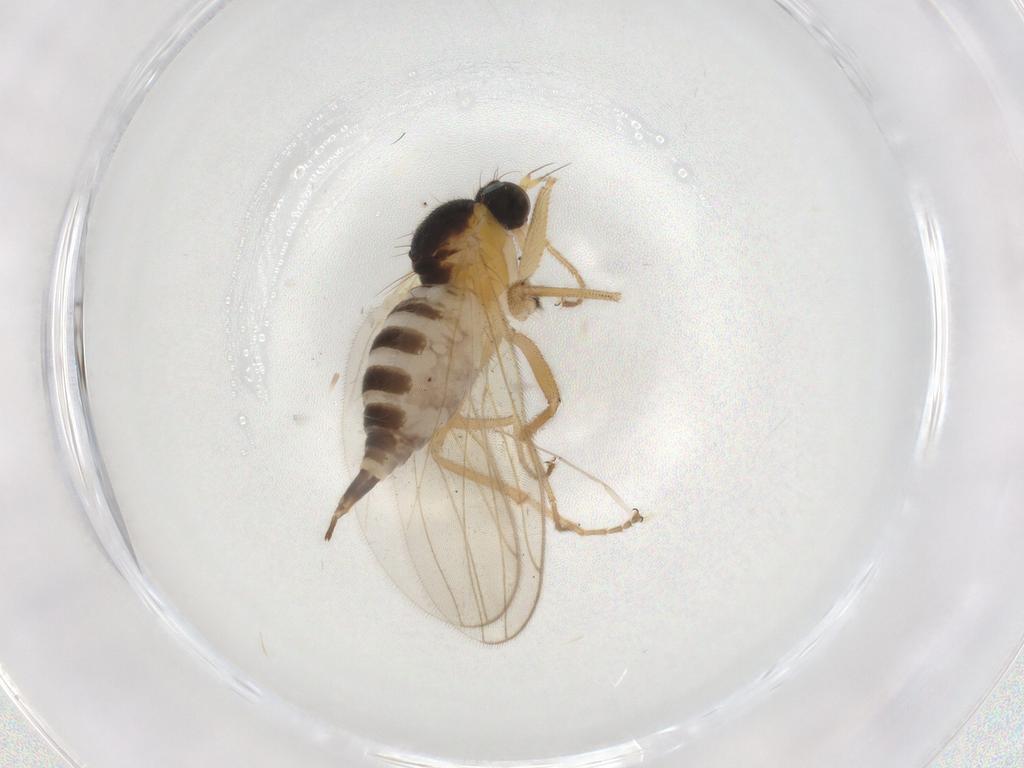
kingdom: Animalia
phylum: Arthropoda
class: Insecta
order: Diptera
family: Hybotidae
